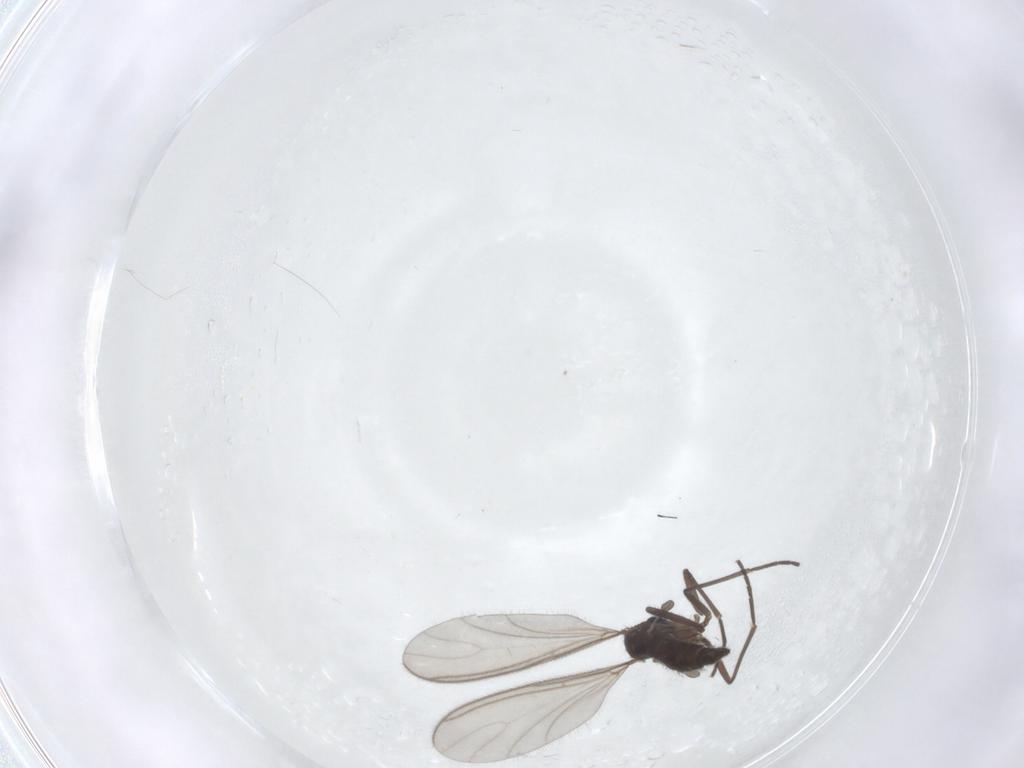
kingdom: Animalia
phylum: Arthropoda
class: Insecta
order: Diptera
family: Sciaridae
